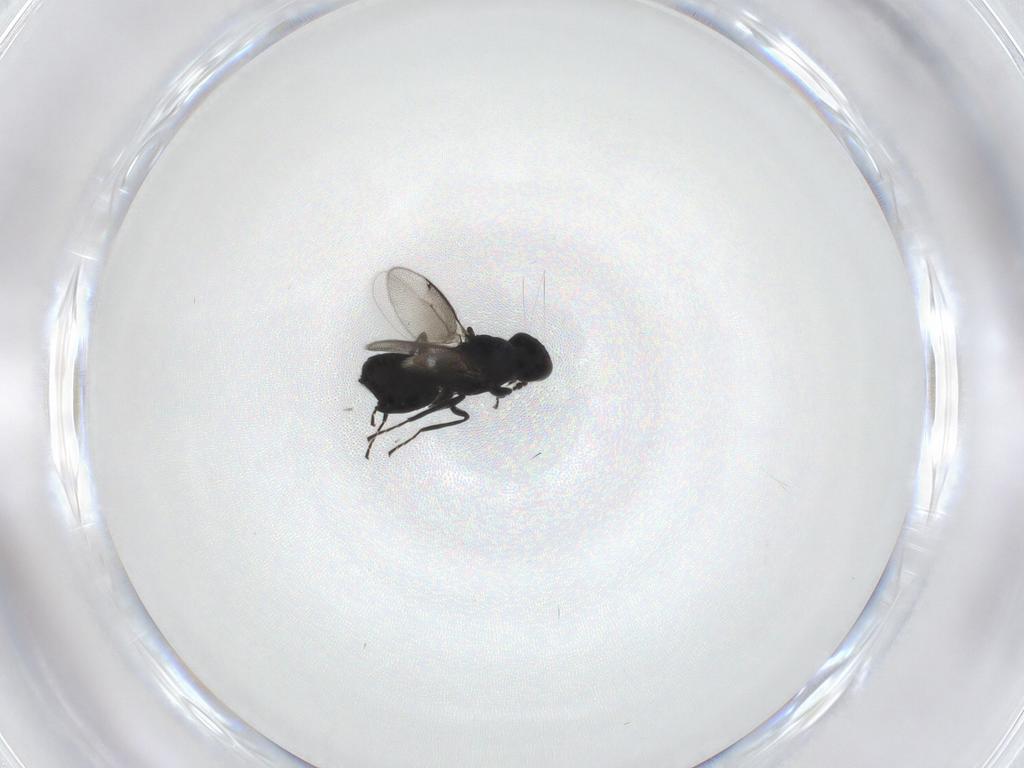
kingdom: Animalia
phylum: Arthropoda
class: Insecta
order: Hymenoptera
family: Eulophidae
